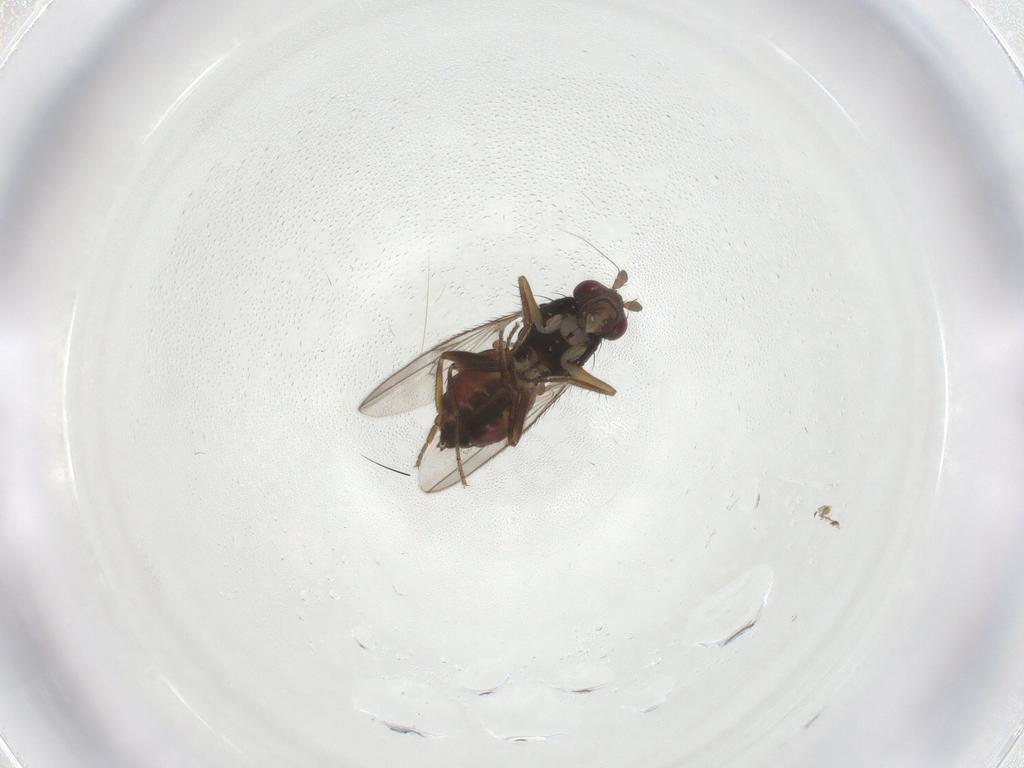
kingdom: Animalia
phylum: Arthropoda
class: Insecta
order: Diptera
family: Sphaeroceridae
